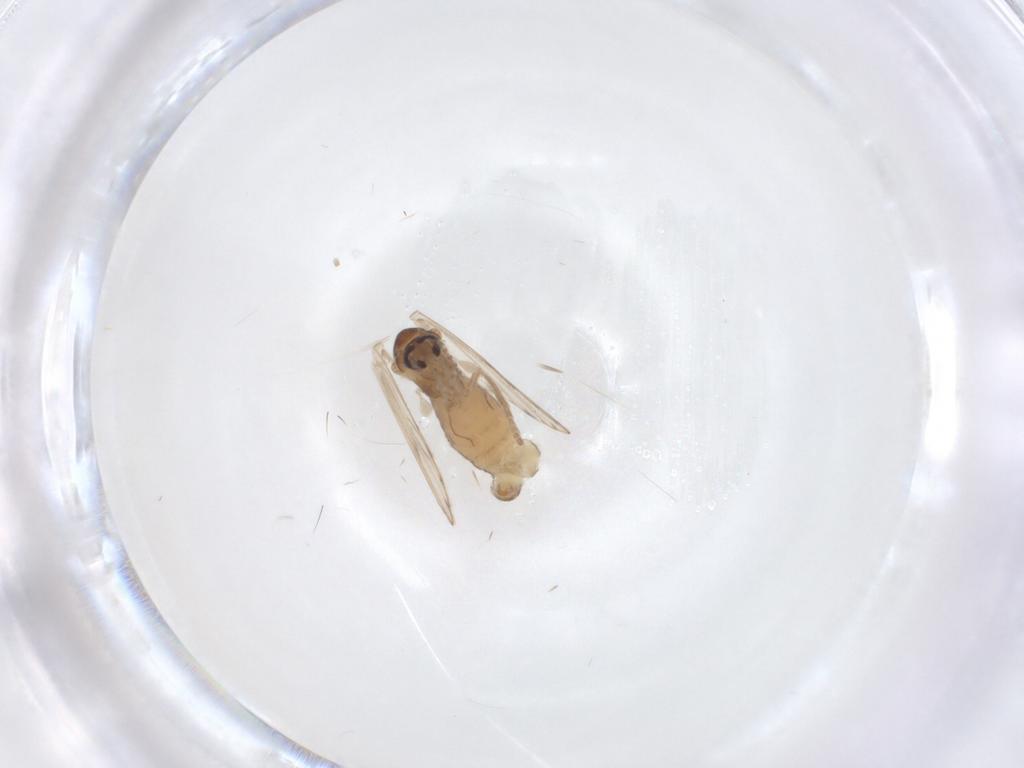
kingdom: Animalia
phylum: Arthropoda
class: Insecta
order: Diptera
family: Psychodidae
